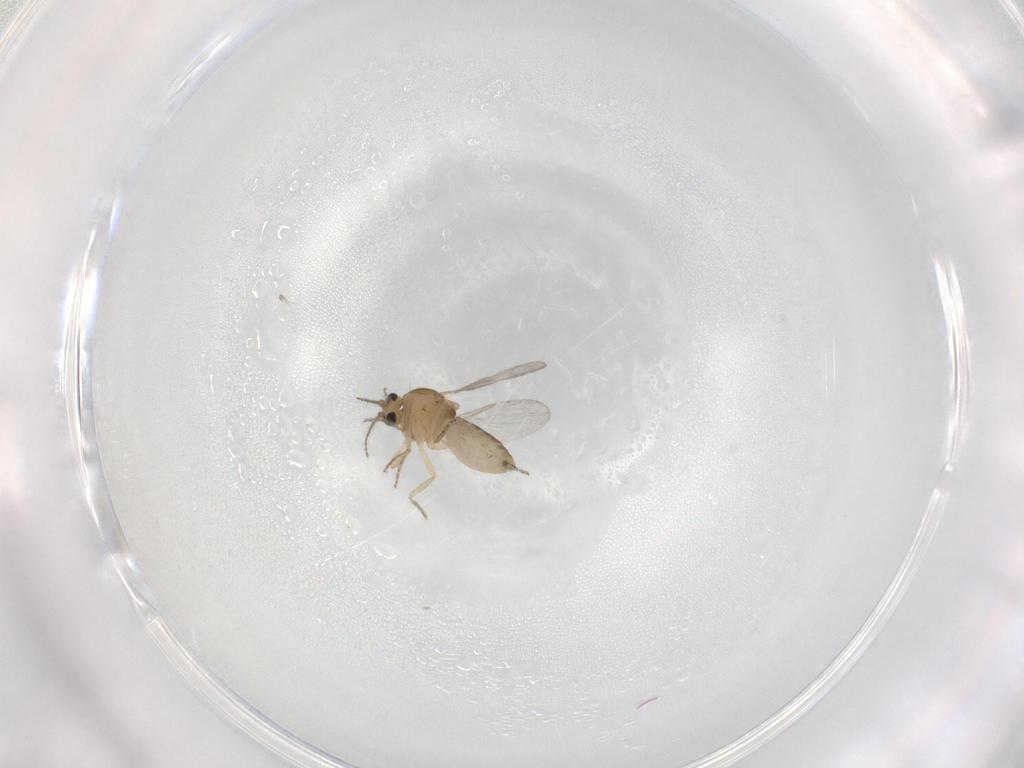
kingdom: Animalia
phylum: Arthropoda
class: Insecta
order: Diptera
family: Ceratopogonidae
